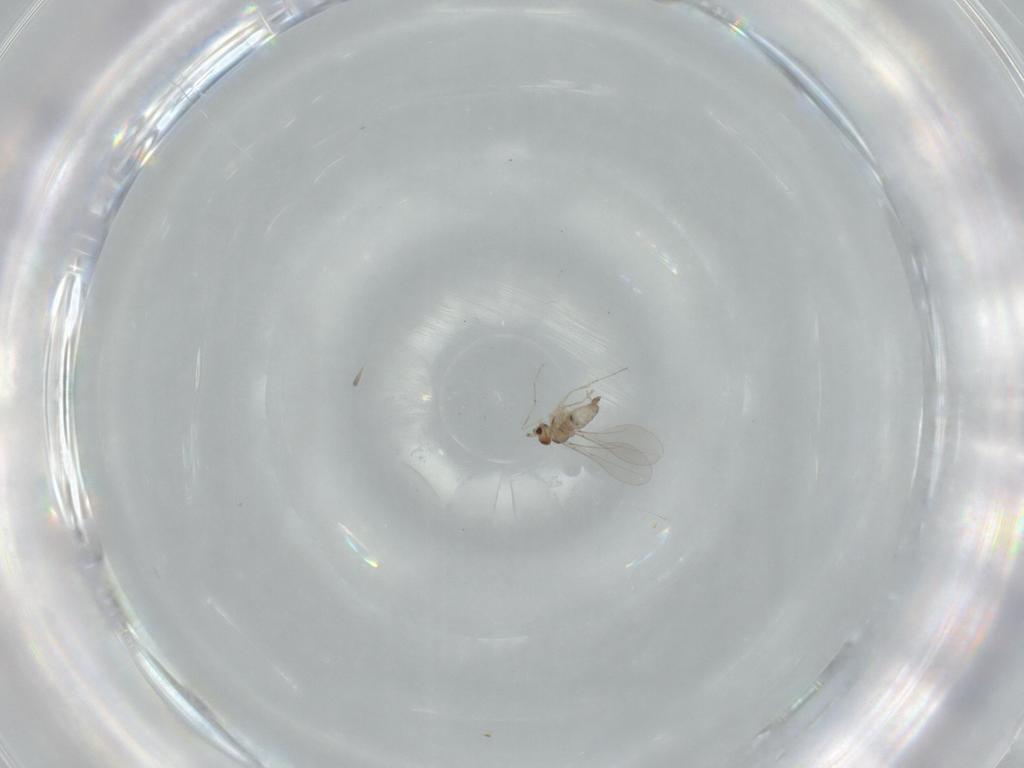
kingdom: Animalia
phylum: Arthropoda
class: Insecta
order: Diptera
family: Cecidomyiidae
